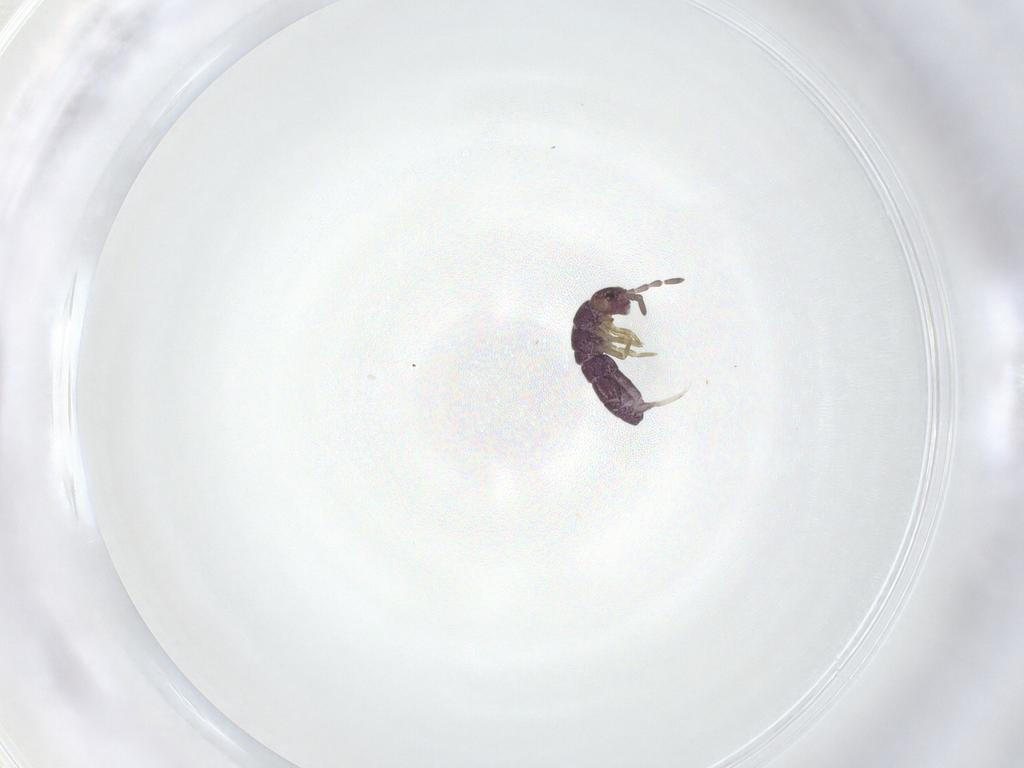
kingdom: Animalia
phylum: Arthropoda
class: Collembola
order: Entomobryomorpha
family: Isotomidae
